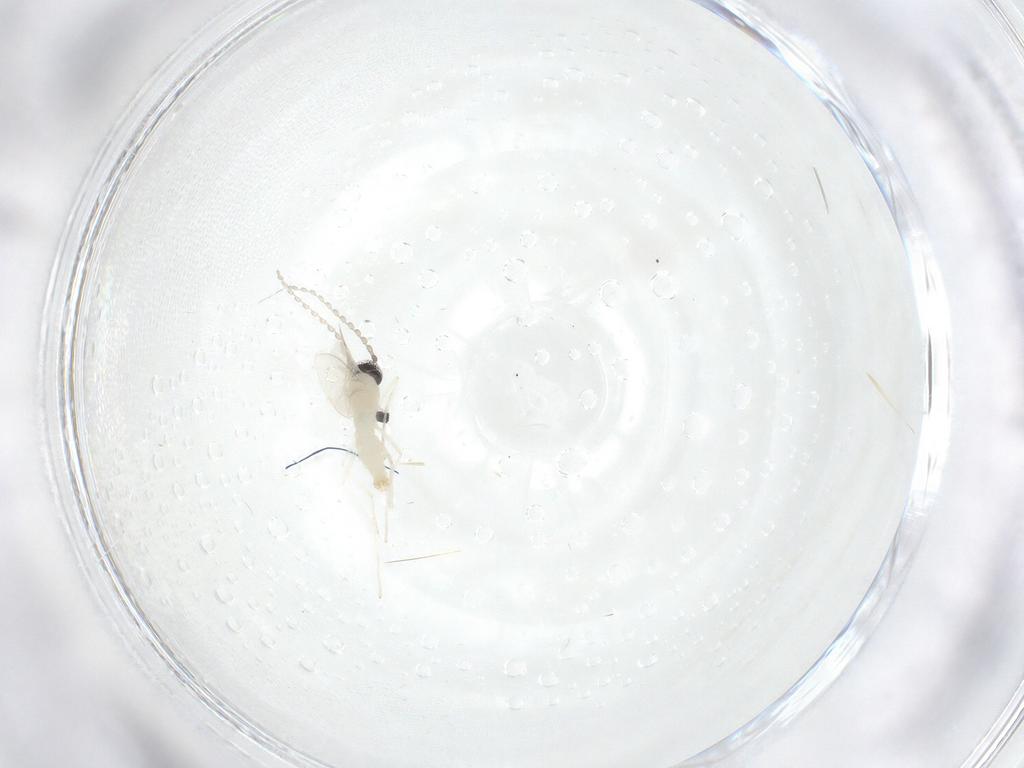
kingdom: Animalia
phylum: Arthropoda
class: Insecta
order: Diptera
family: Cecidomyiidae
